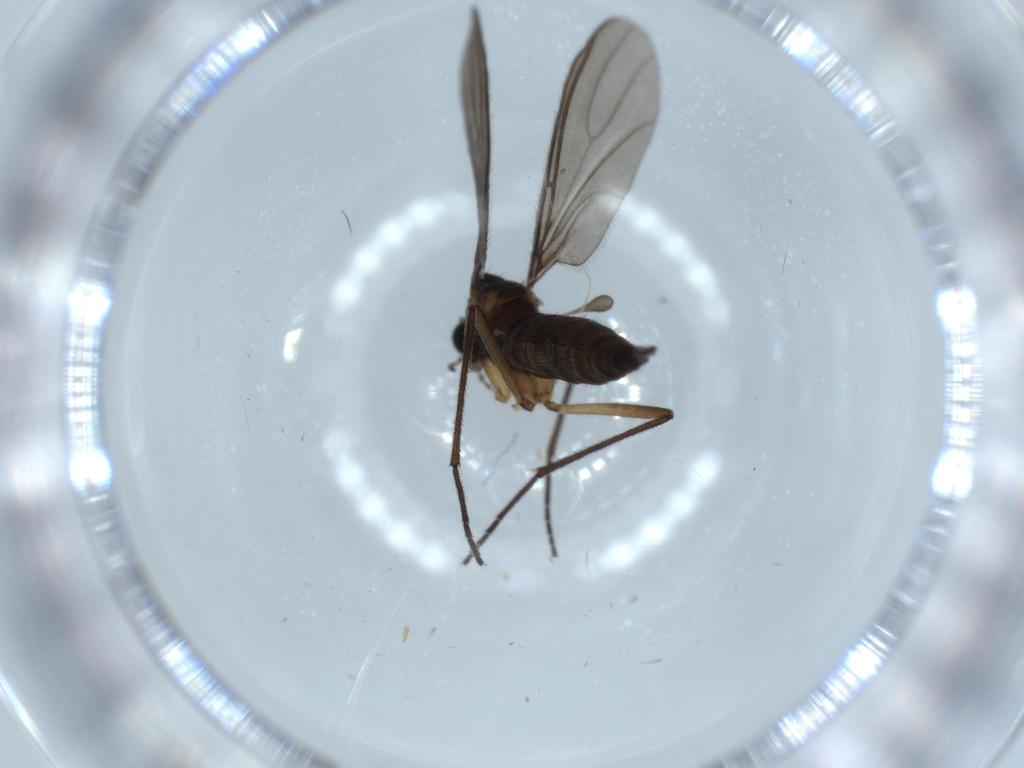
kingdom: Animalia
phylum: Arthropoda
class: Insecta
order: Diptera
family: Sciaridae
